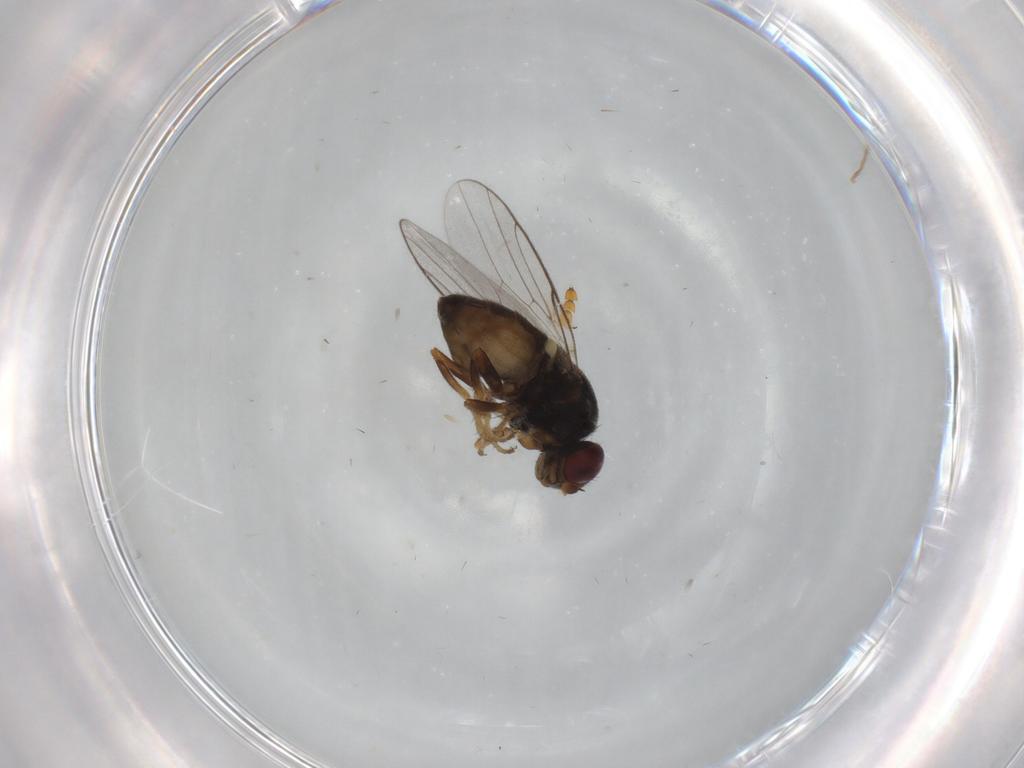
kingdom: Animalia
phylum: Arthropoda
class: Insecta
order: Diptera
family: Chloropidae
